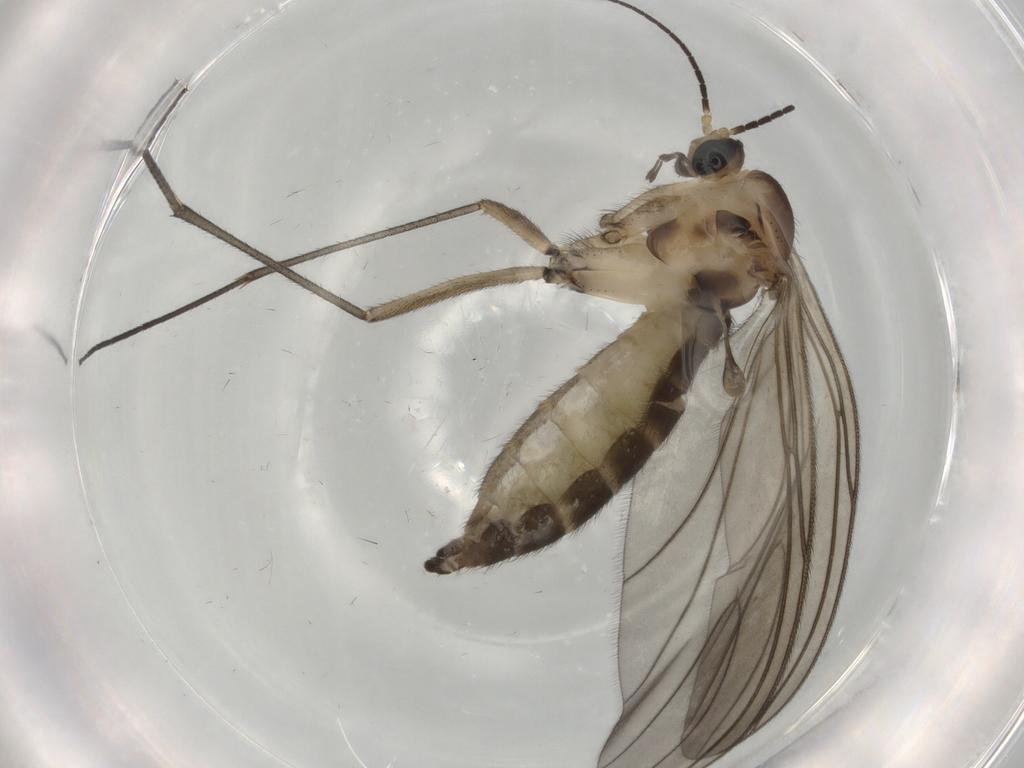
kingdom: Animalia
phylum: Arthropoda
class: Insecta
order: Diptera
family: Sciaridae
